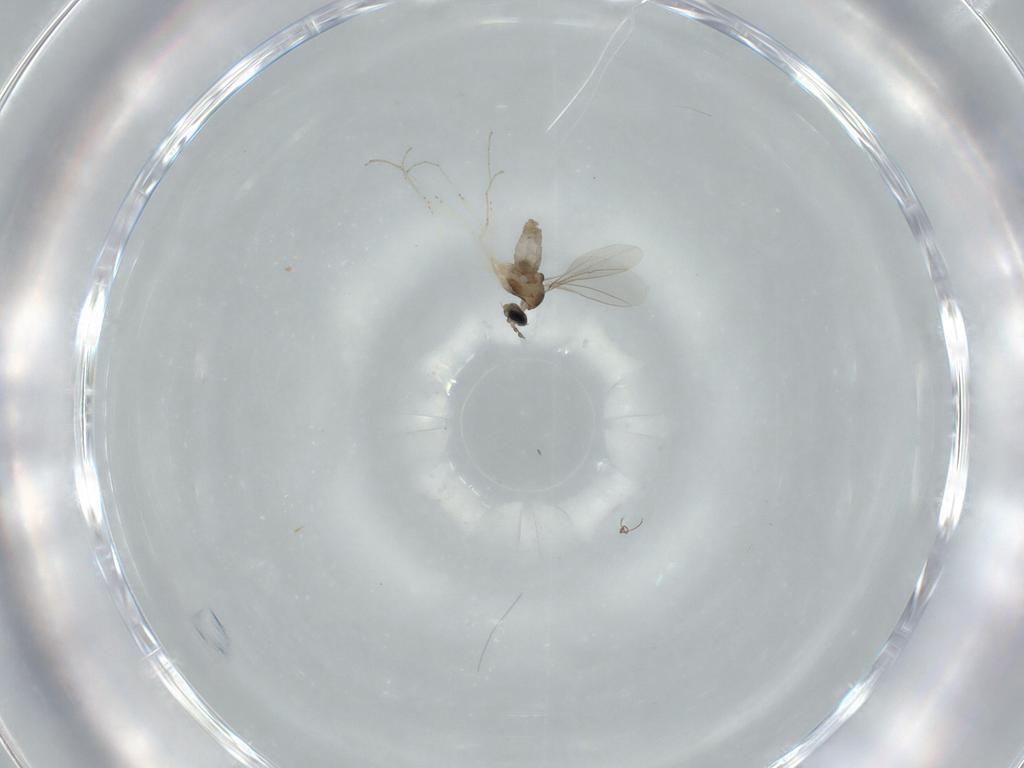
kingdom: Animalia
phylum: Arthropoda
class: Insecta
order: Diptera
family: Cecidomyiidae
